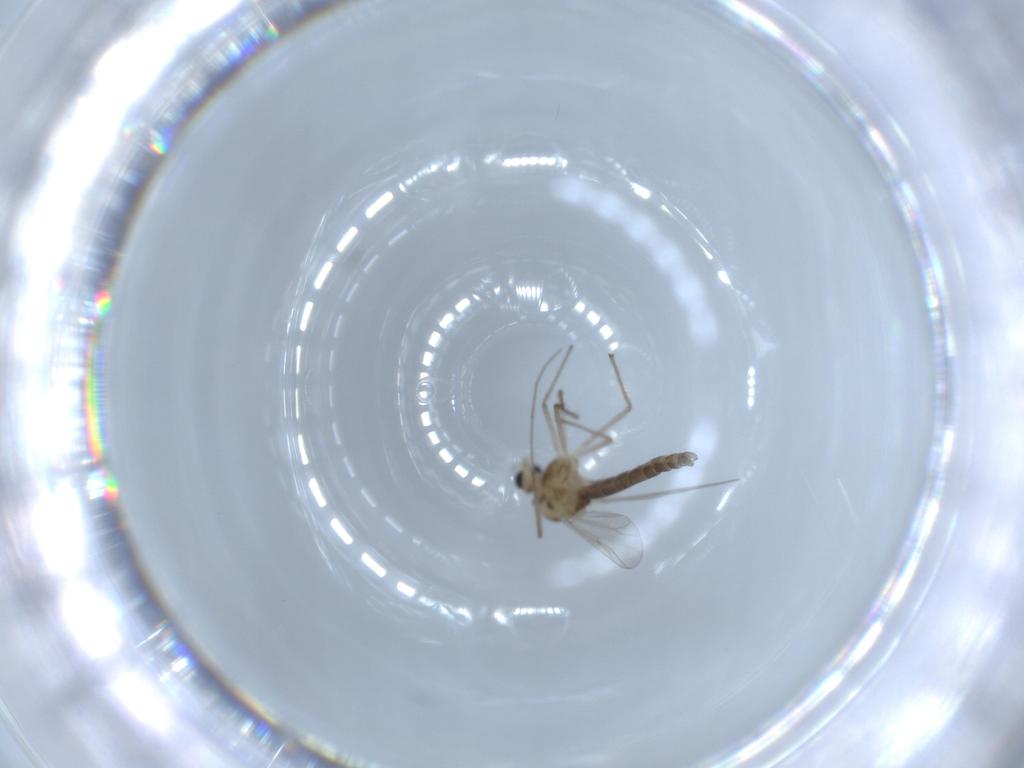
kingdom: Animalia
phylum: Arthropoda
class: Insecta
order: Diptera
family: Chironomidae
